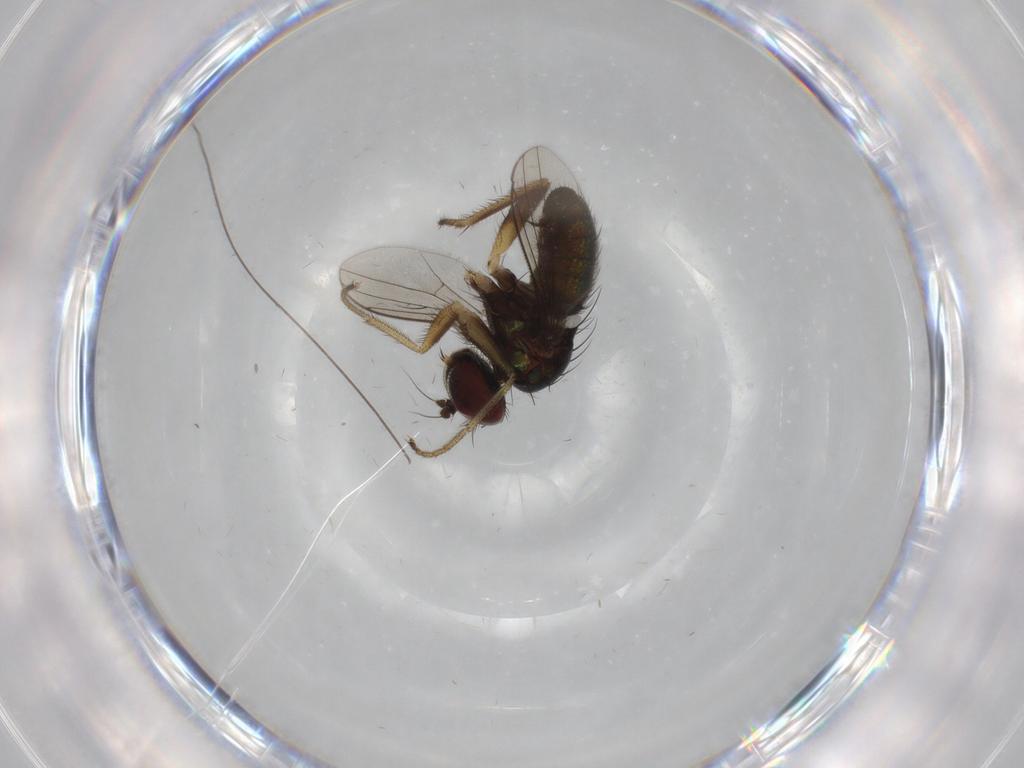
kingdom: Animalia
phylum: Arthropoda
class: Insecta
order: Diptera
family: Dolichopodidae
